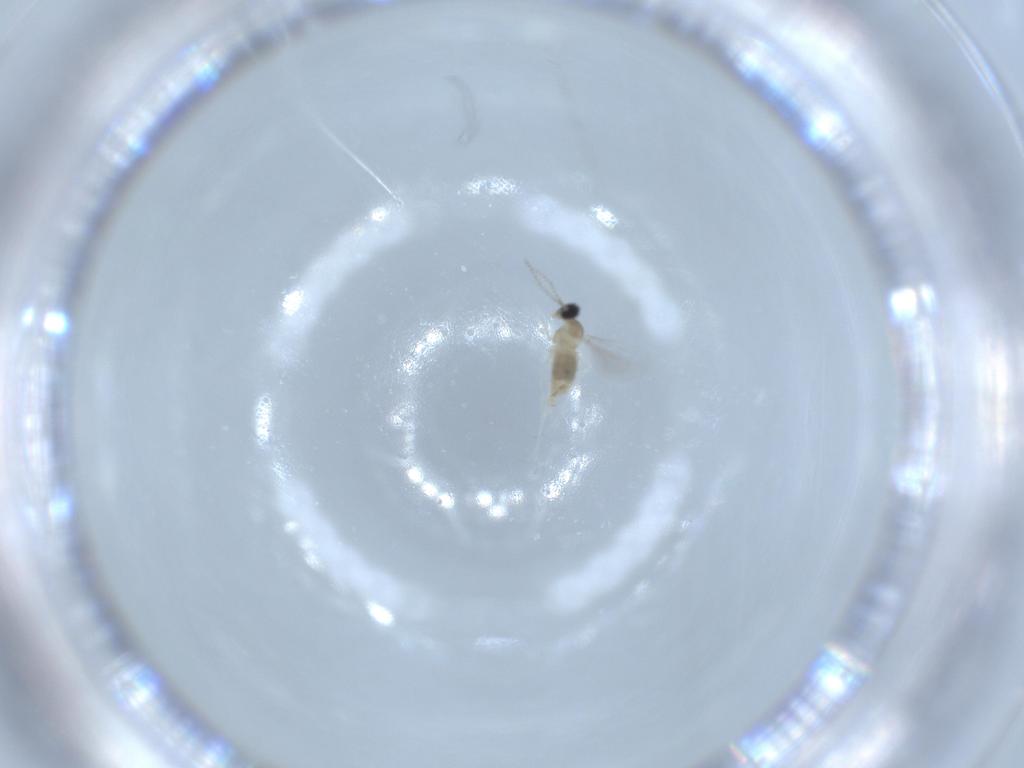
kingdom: Animalia
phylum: Arthropoda
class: Insecta
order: Diptera
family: Cecidomyiidae
